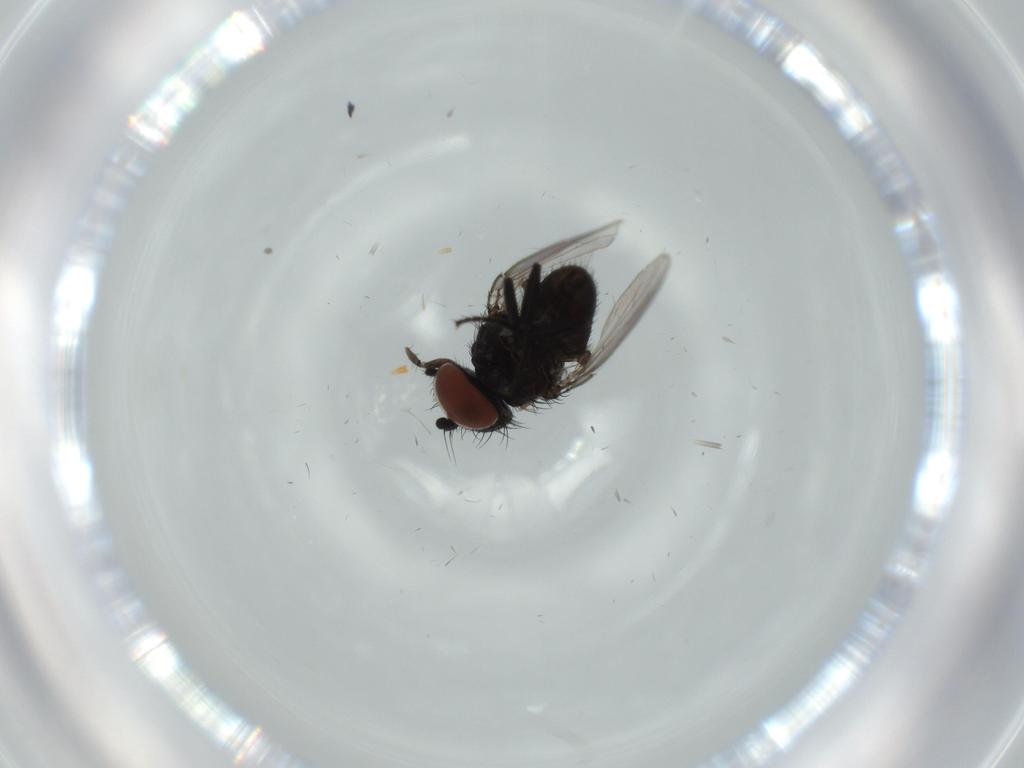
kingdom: Animalia
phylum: Arthropoda
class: Insecta
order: Diptera
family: Milichiidae
